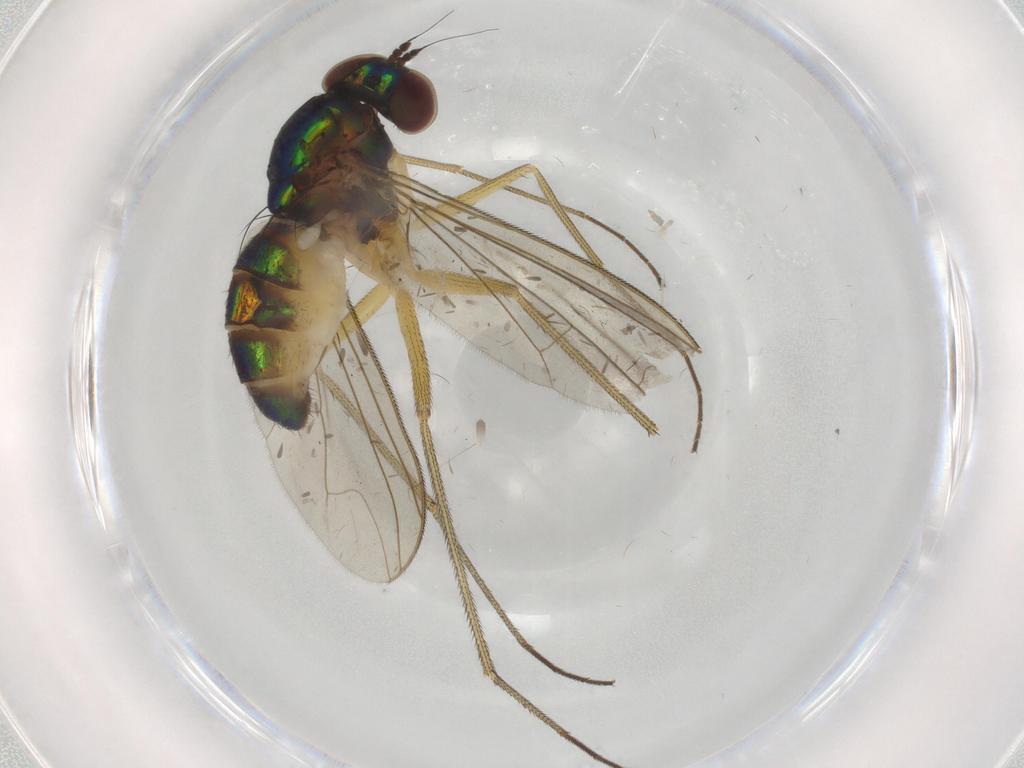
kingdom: Animalia
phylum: Arthropoda
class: Insecta
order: Diptera
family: Dolichopodidae
